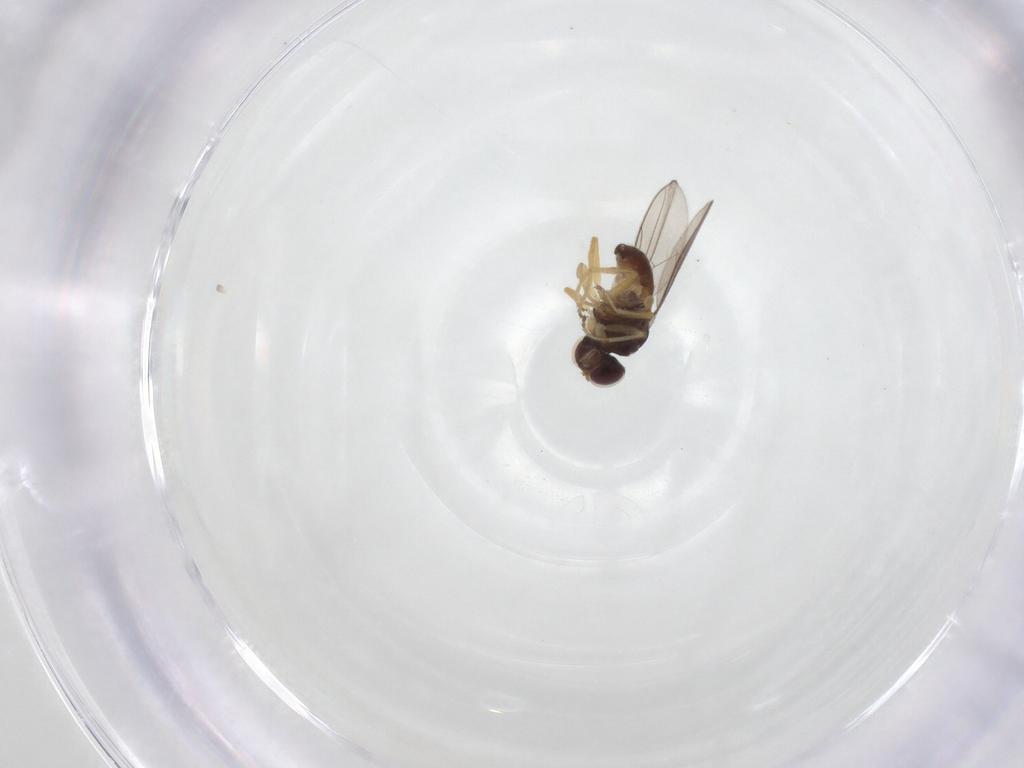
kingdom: Animalia
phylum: Arthropoda
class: Insecta
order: Diptera
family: Chloropidae
